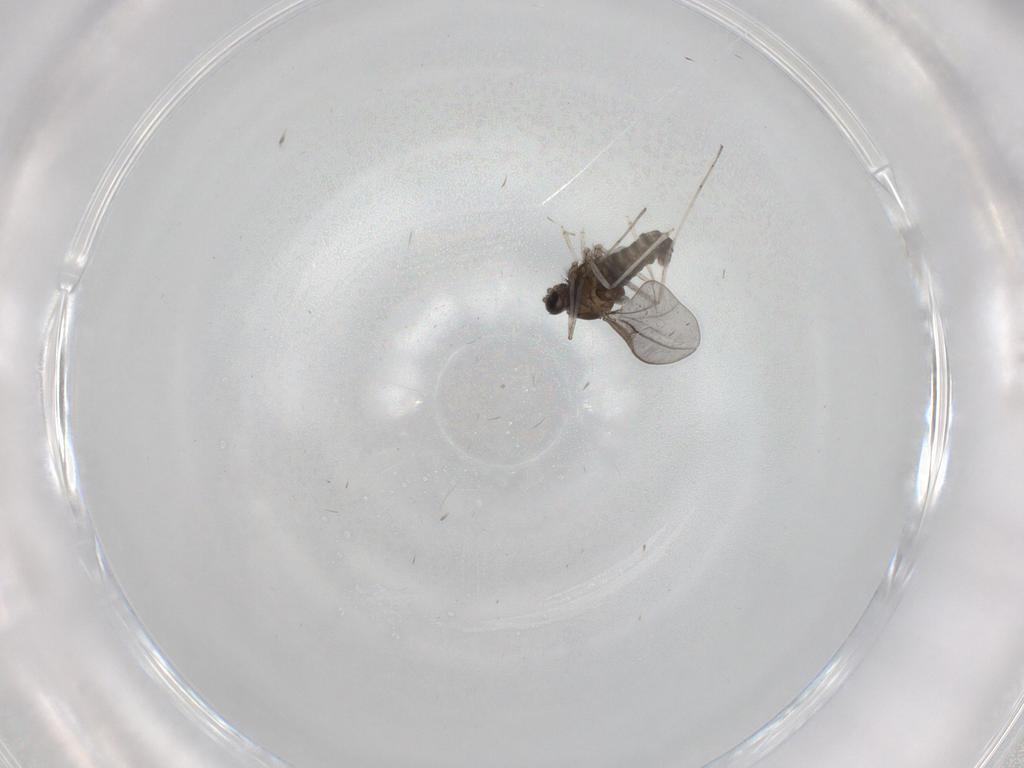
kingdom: Animalia
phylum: Arthropoda
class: Insecta
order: Diptera
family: Cecidomyiidae
